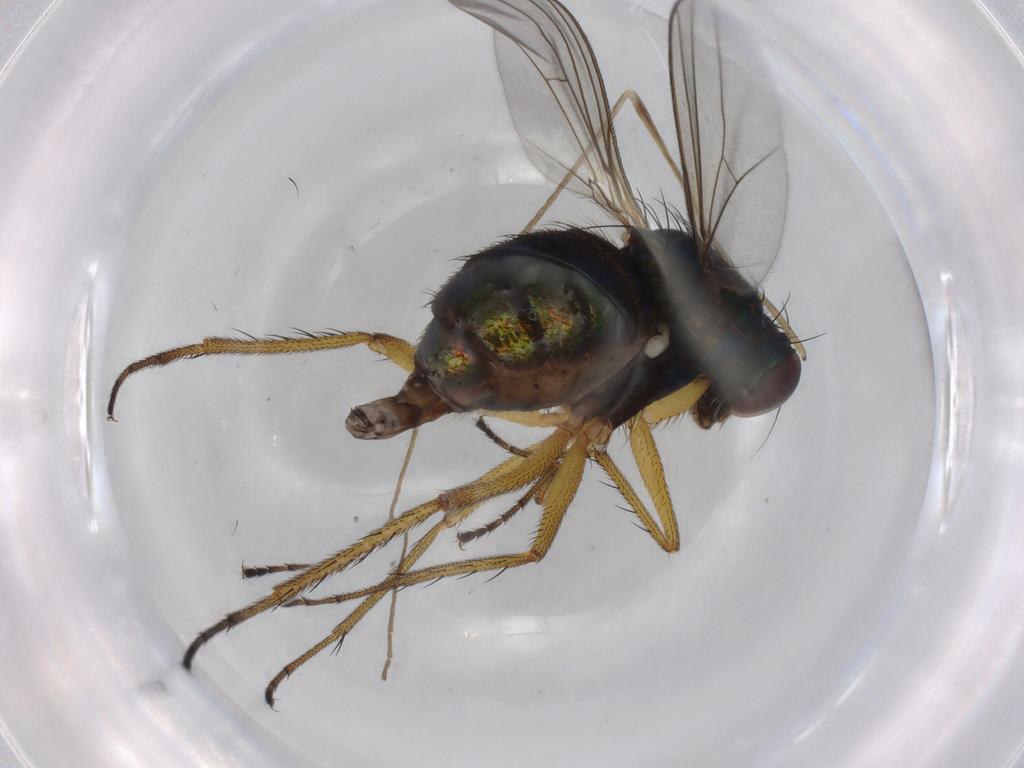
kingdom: Animalia
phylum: Arthropoda
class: Insecta
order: Diptera
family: Limoniidae
